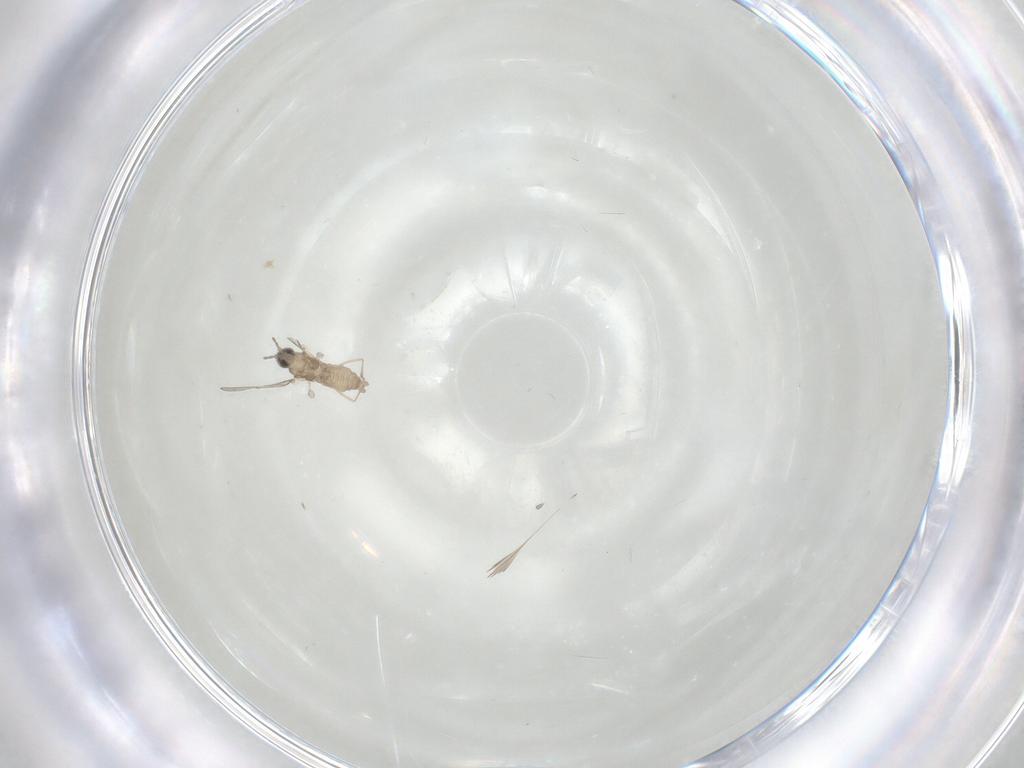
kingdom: Animalia
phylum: Arthropoda
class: Insecta
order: Diptera
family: Cecidomyiidae
